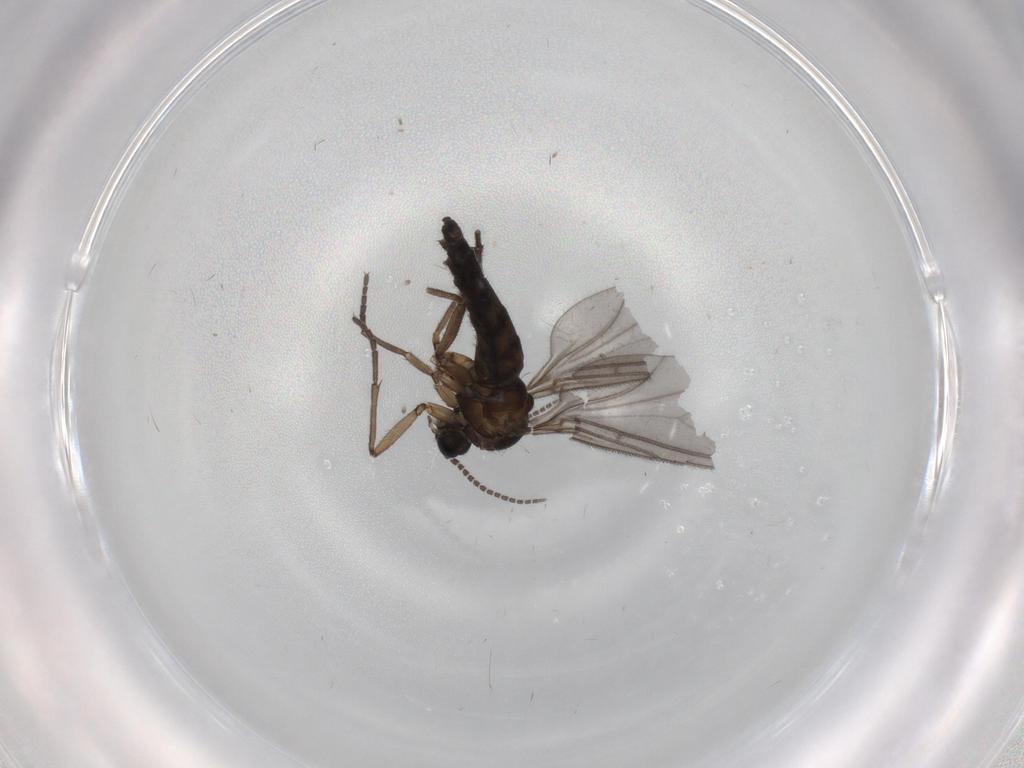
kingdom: Animalia
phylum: Arthropoda
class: Insecta
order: Diptera
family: Sciaridae
